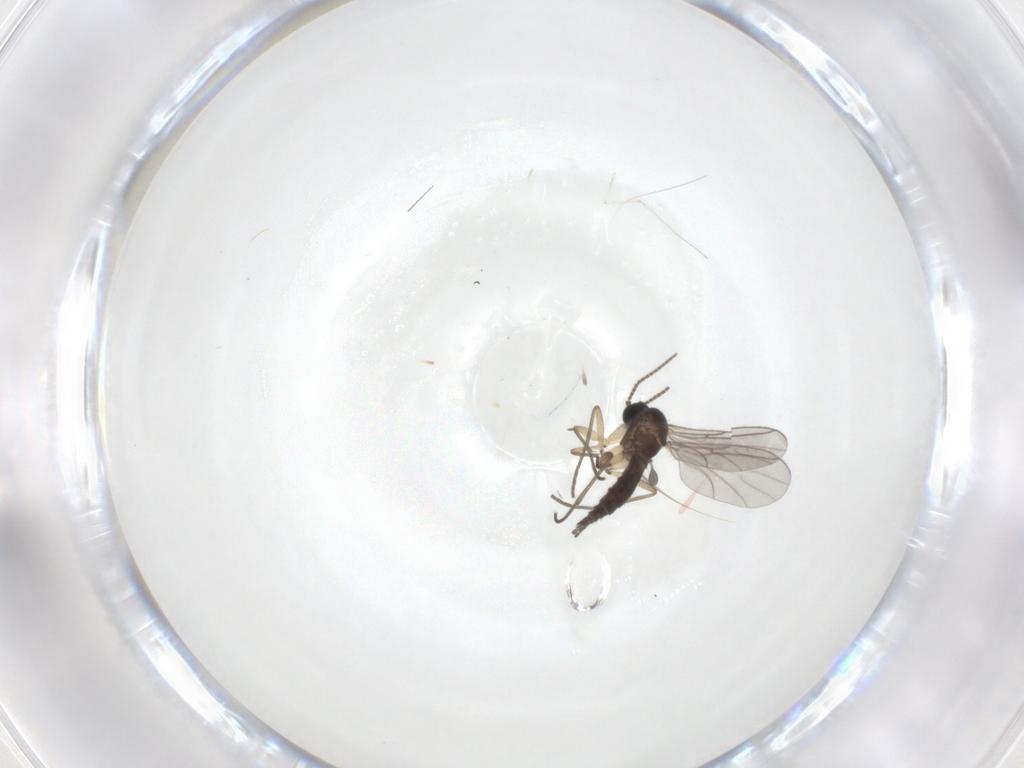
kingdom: Animalia
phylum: Arthropoda
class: Insecta
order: Diptera
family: Sciaridae
